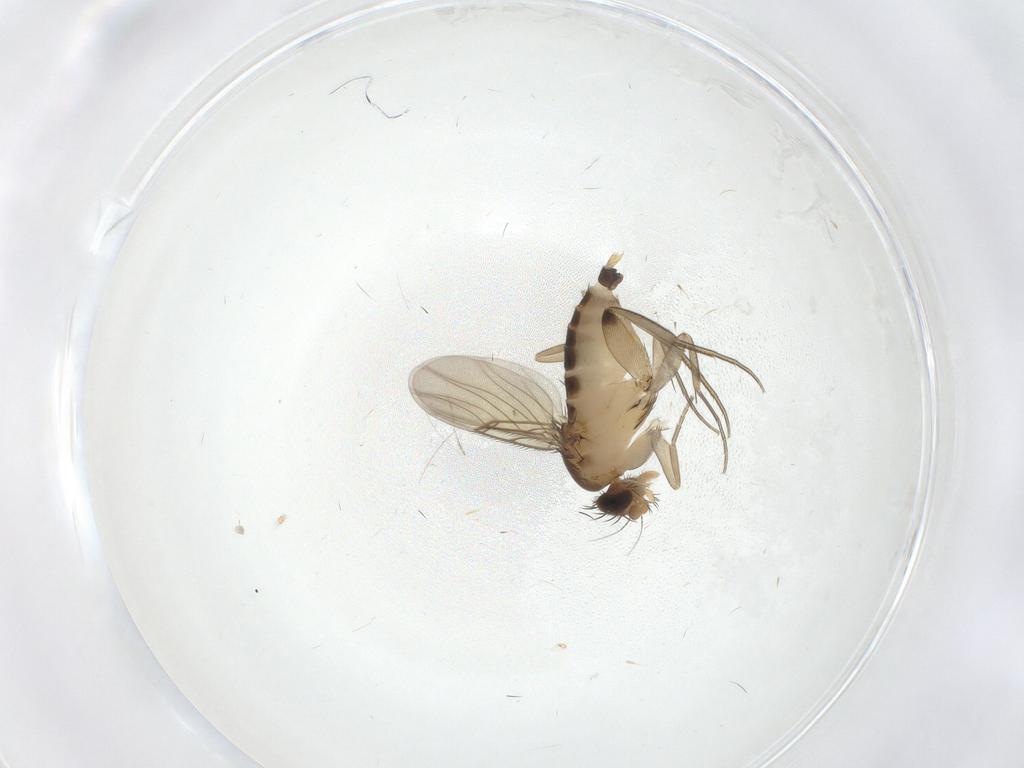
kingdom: Animalia
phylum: Arthropoda
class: Insecta
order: Diptera
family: Phoridae
